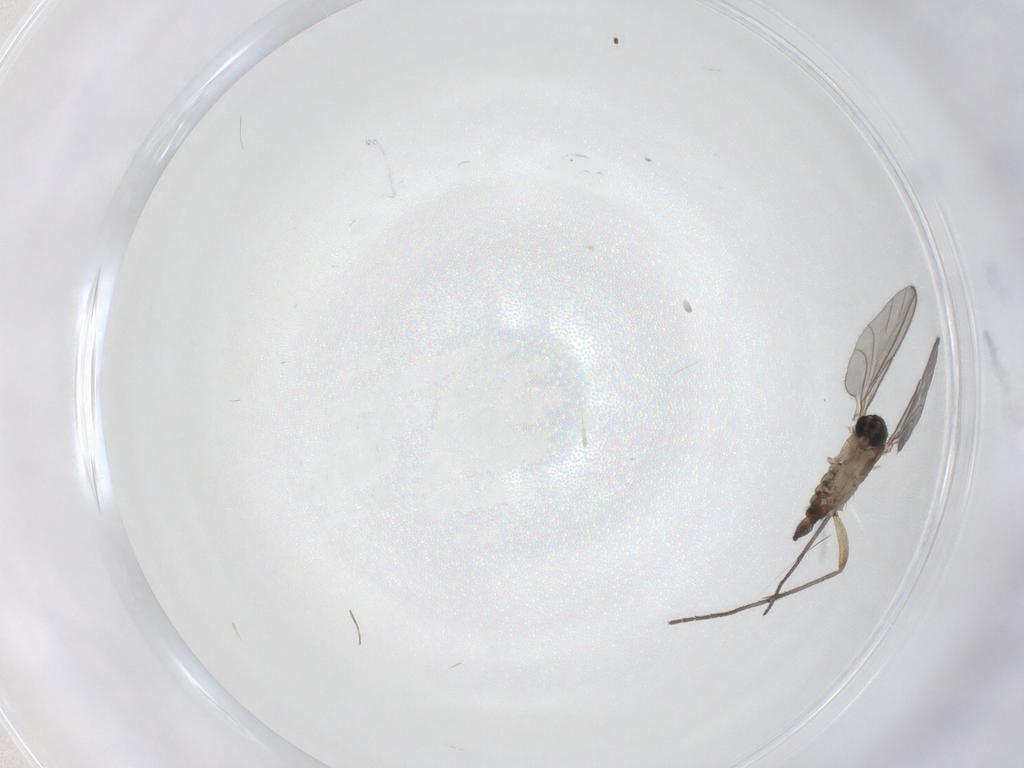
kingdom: Animalia
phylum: Arthropoda
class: Insecta
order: Diptera
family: Sciaridae
